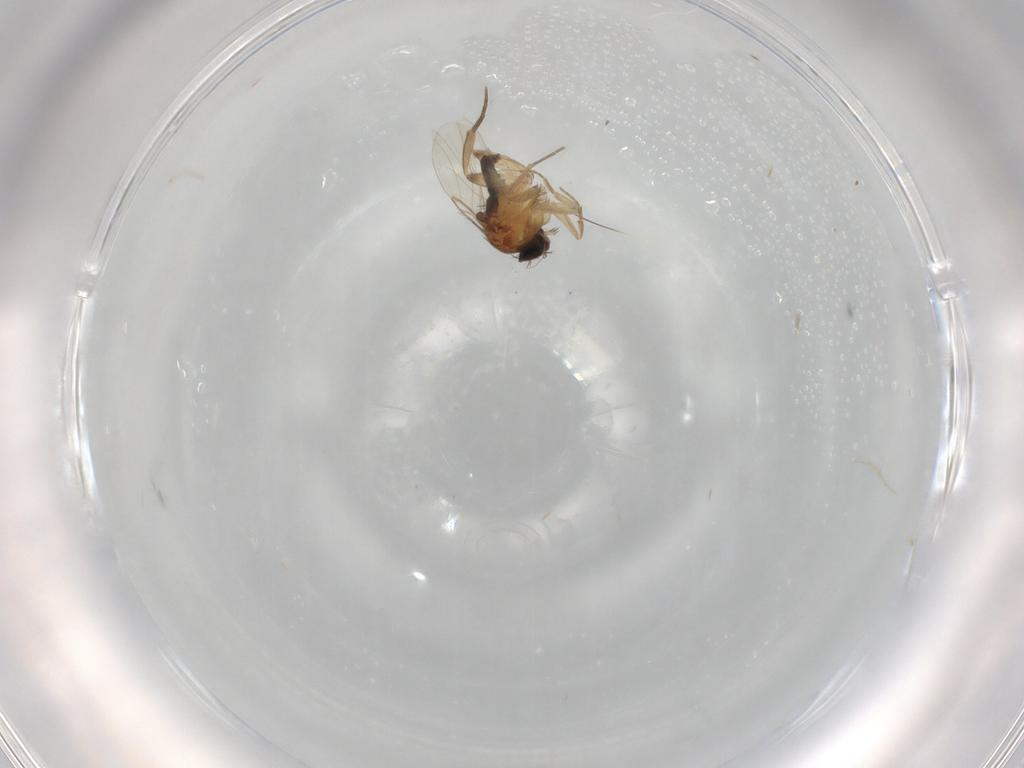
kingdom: Animalia
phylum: Arthropoda
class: Insecta
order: Diptera
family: Phoridae
